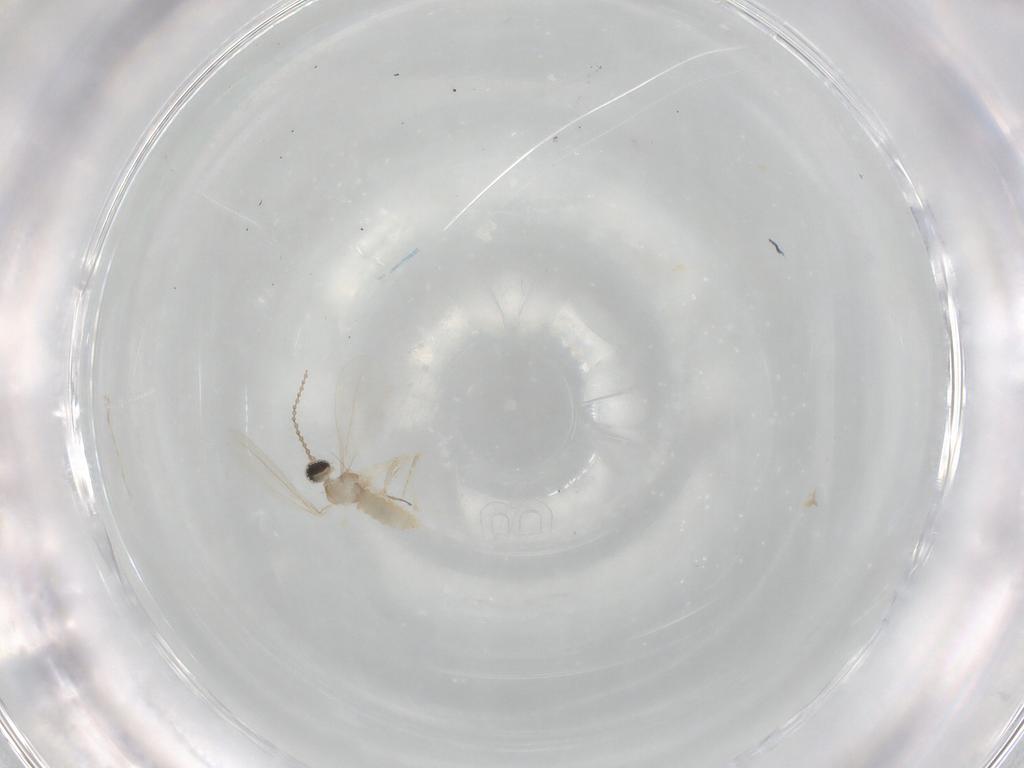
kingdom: Animalia
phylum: Arthropoda
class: Insecta
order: Diptera
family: Cecidomyiidae
